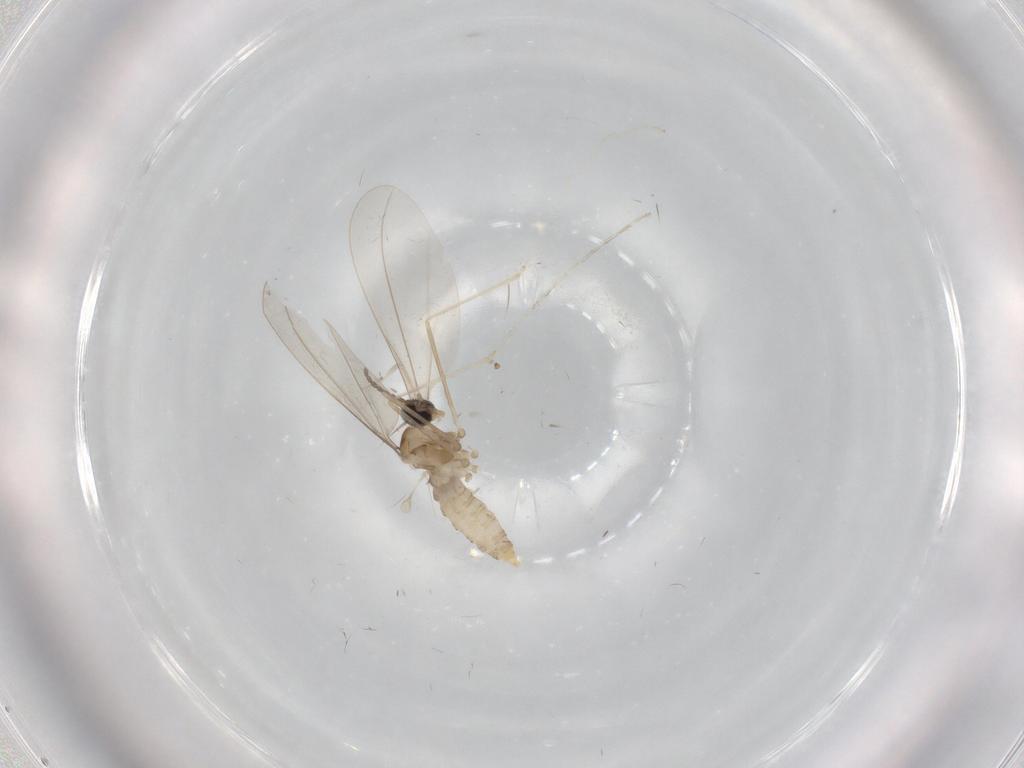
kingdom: Animalia
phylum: Arthropoda
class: Insecta
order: Diptera
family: Cecidomyiidae
